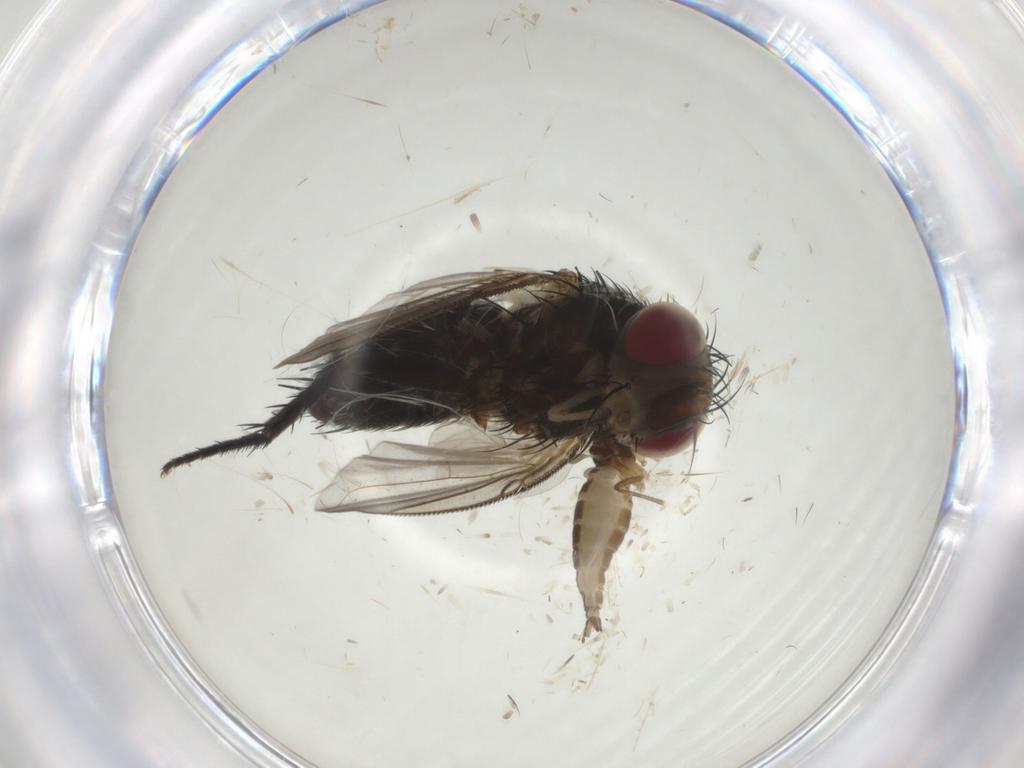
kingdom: Animalia
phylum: Arthropoda
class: Insecta
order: Diptera
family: Tachinidae
